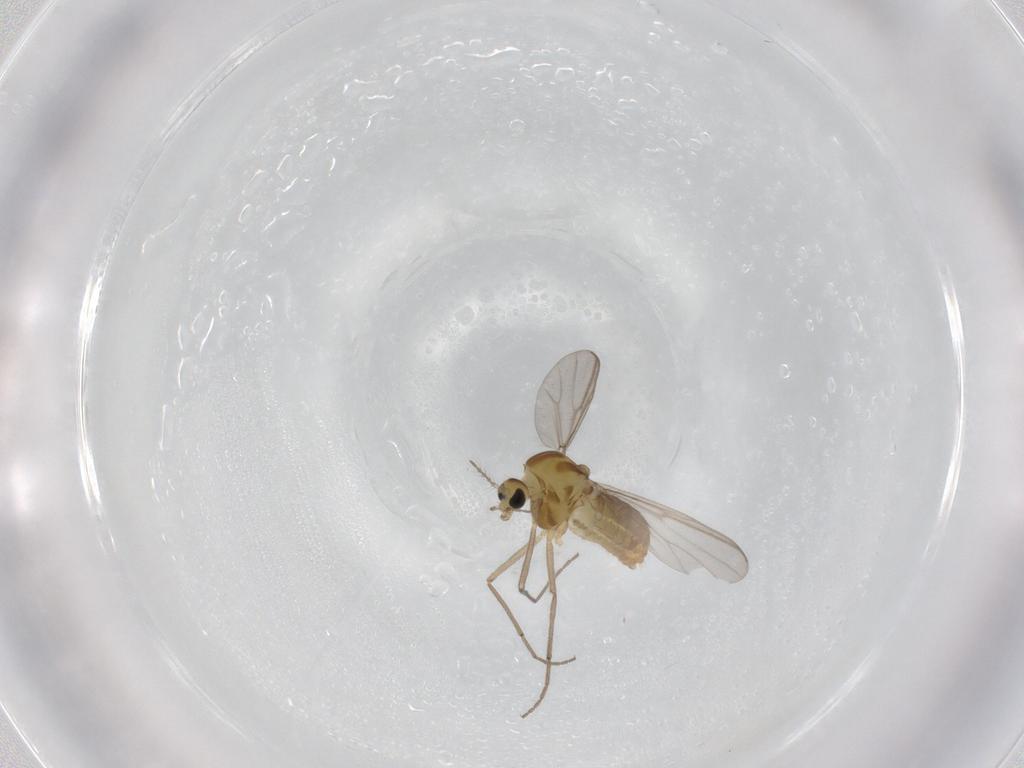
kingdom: Animalia
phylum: Arthropoda
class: Insecta
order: Diptera
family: Chironomidae
